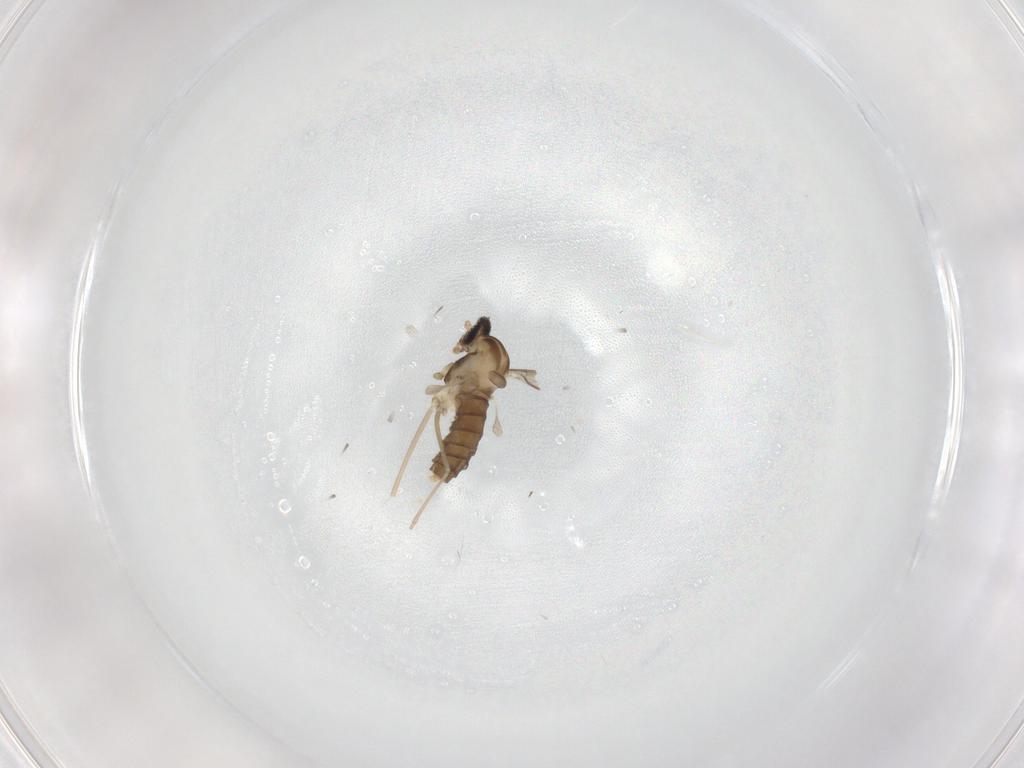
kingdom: Animalia
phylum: Arthropoda
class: Insecta
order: Diptera
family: Cecidomyiidae
